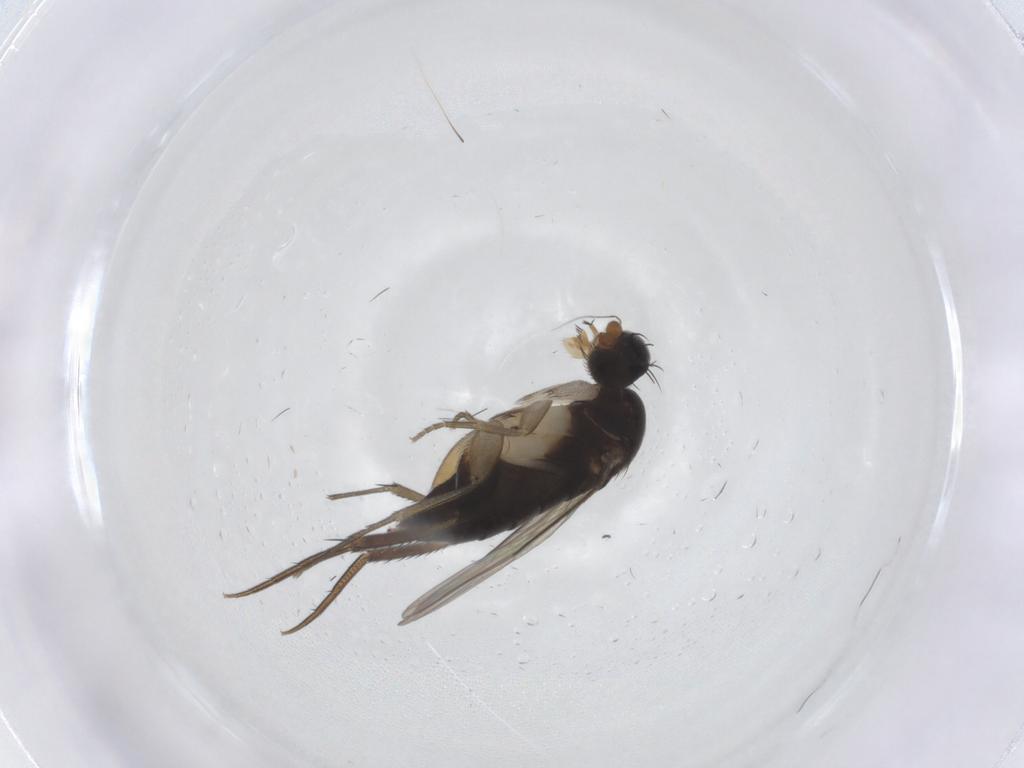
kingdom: Animalia
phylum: Arthropoda
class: Insecta
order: Diptera
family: Phoridae
